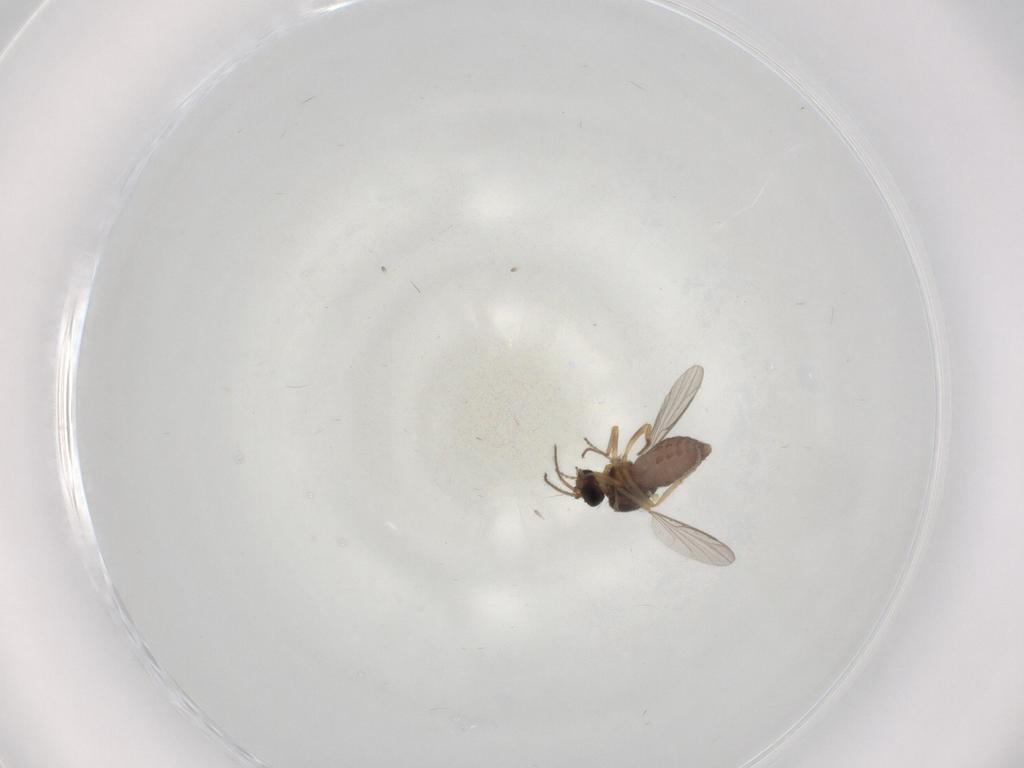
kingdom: Animalia
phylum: Arthropoda
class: Insecta
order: Diptera
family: Ceratopogonidae
